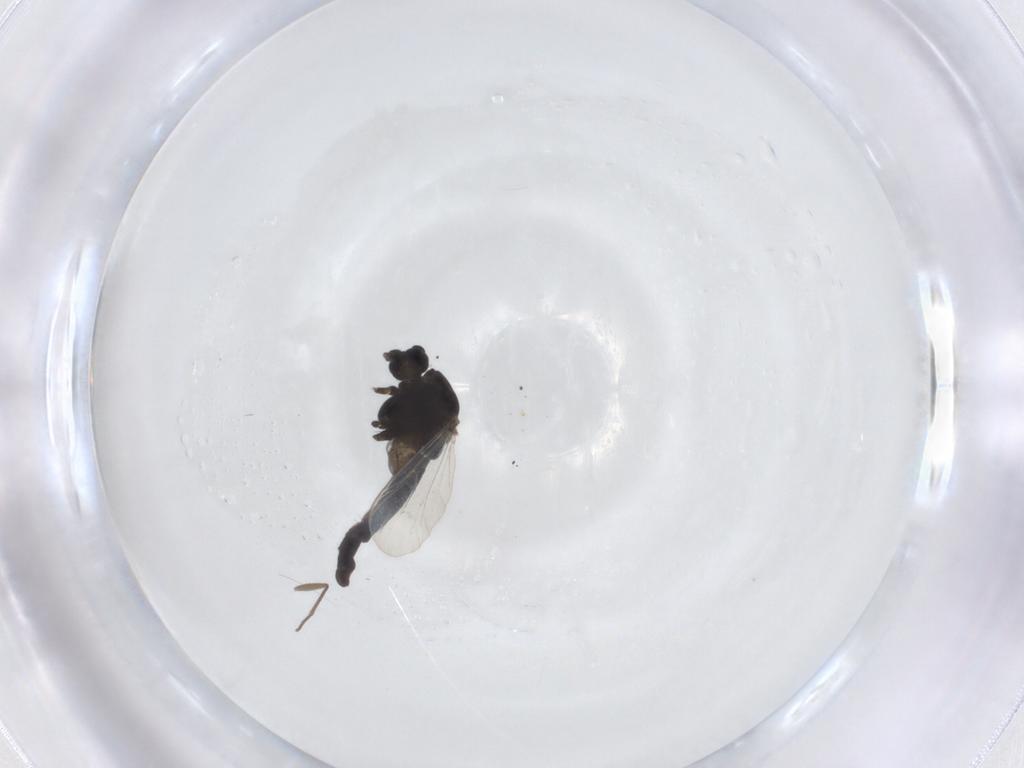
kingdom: Animalia
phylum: Arthropoda
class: Insecta
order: Diptera
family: Chironomidae
